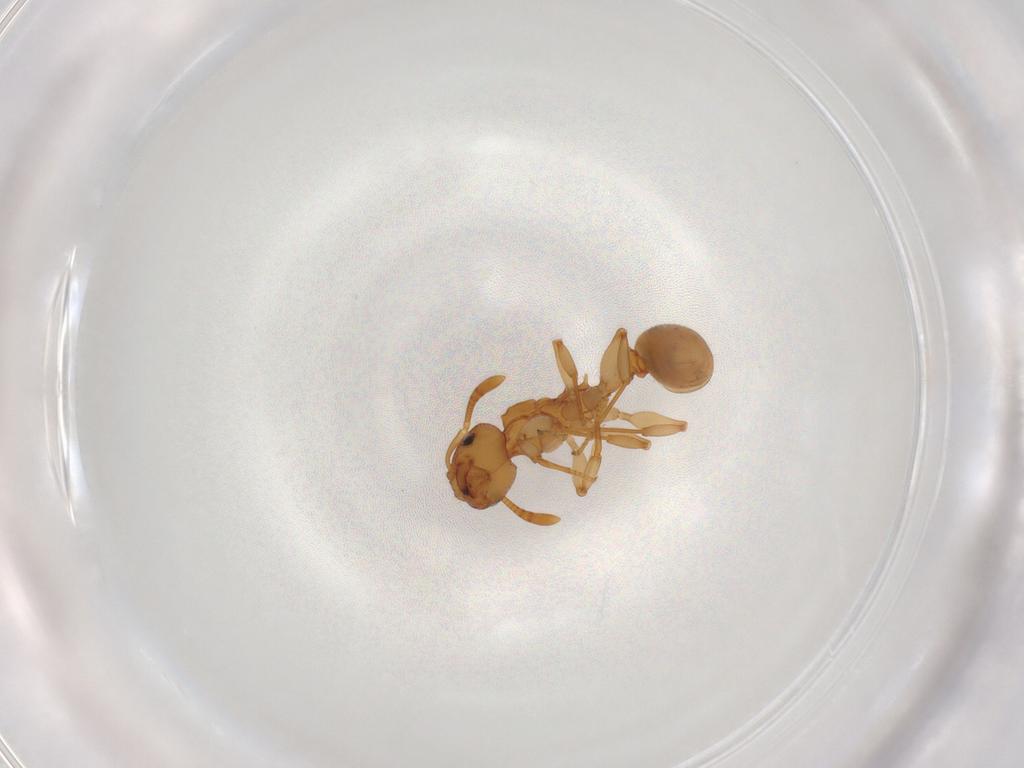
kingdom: Animalia
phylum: Arthropoda
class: Insecta
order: Hymenoptera
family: Formicidae
